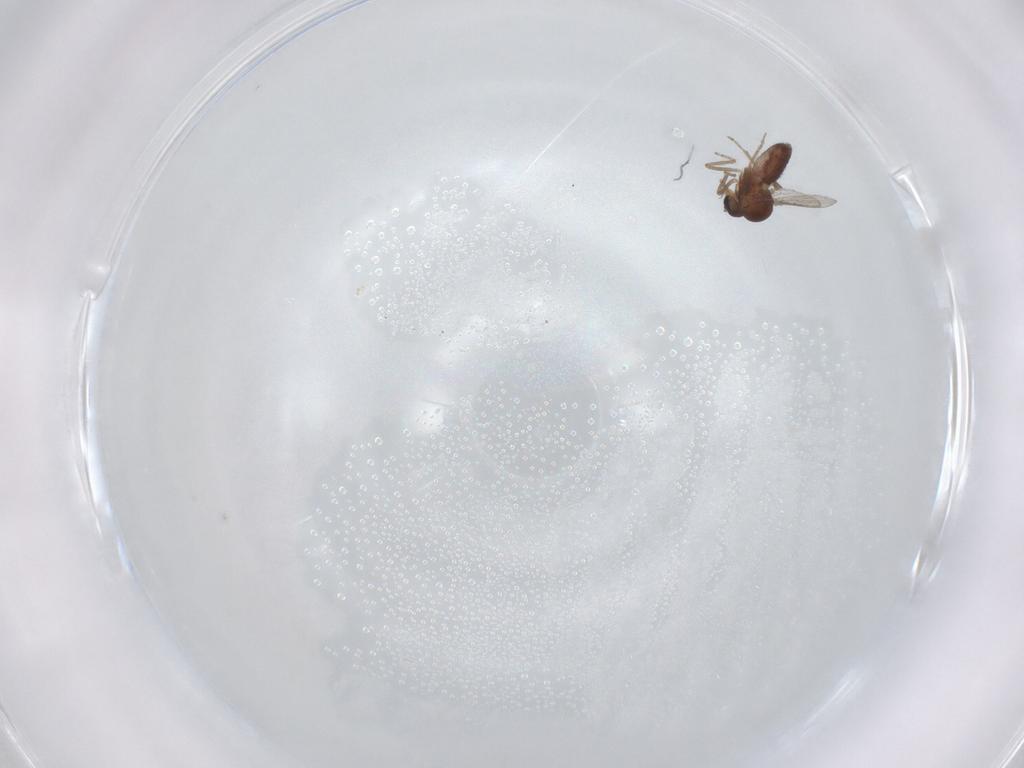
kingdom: Animalia
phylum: Arthropoda
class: Insecta
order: Diptera
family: Ceratopogonidae
